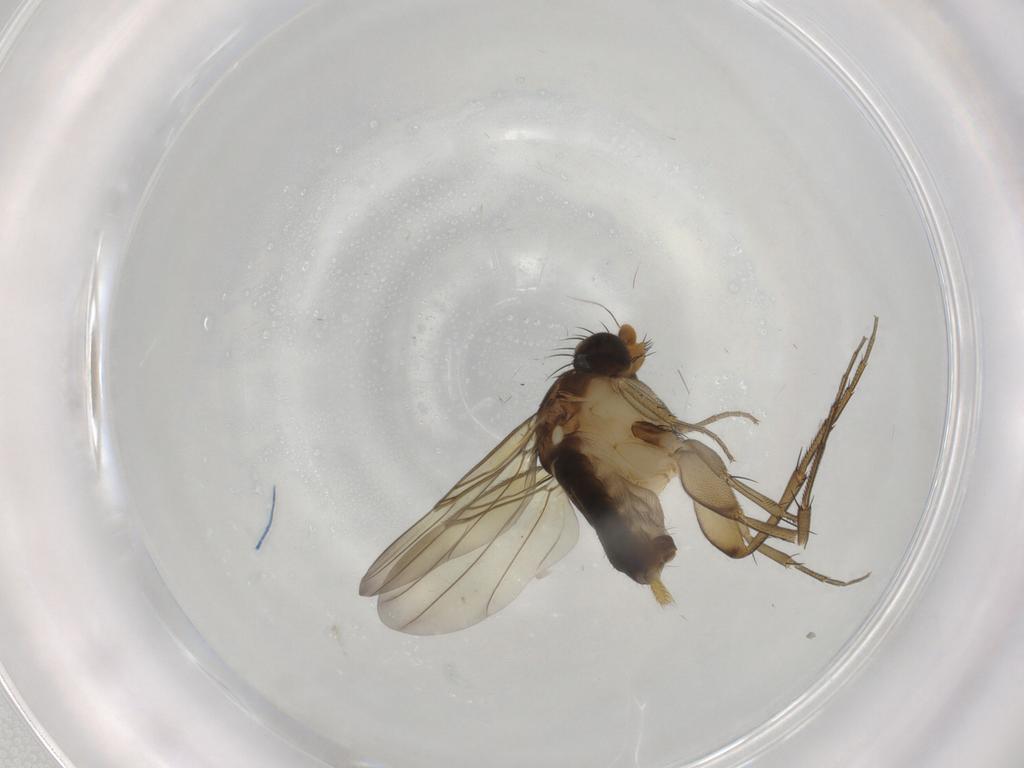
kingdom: Animalia
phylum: Arthropoda
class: Insecta
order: Diptera
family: Phoridae
